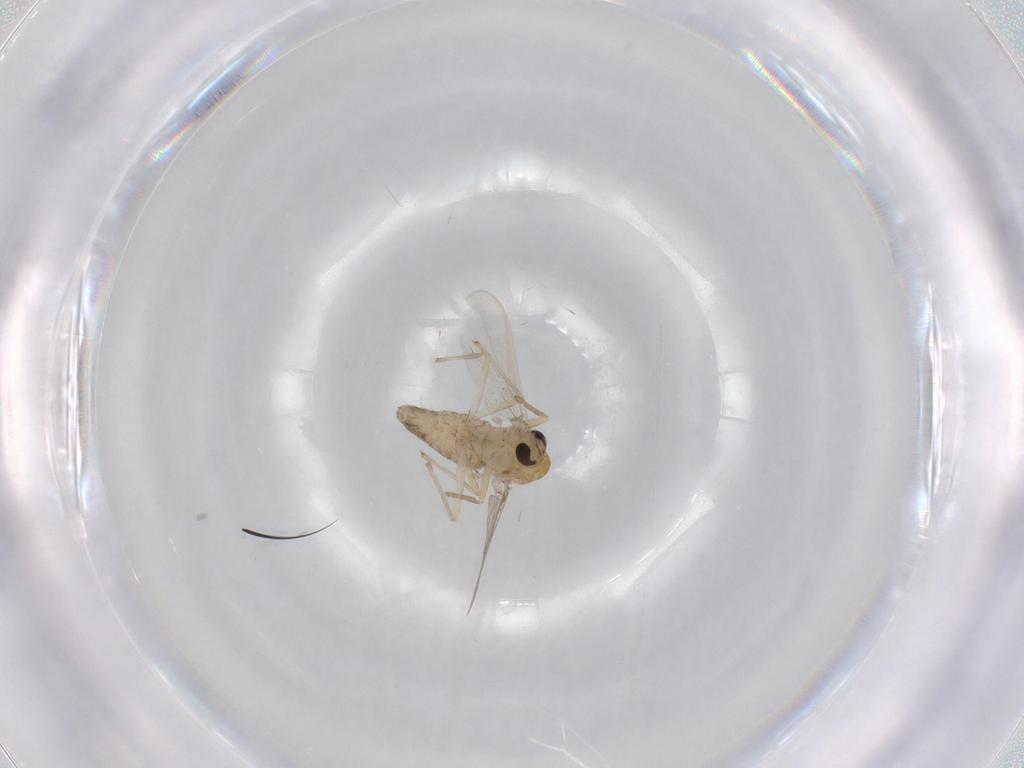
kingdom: Animalia
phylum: Arthropoda
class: Insecta
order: Diptera
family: Chironomidae
